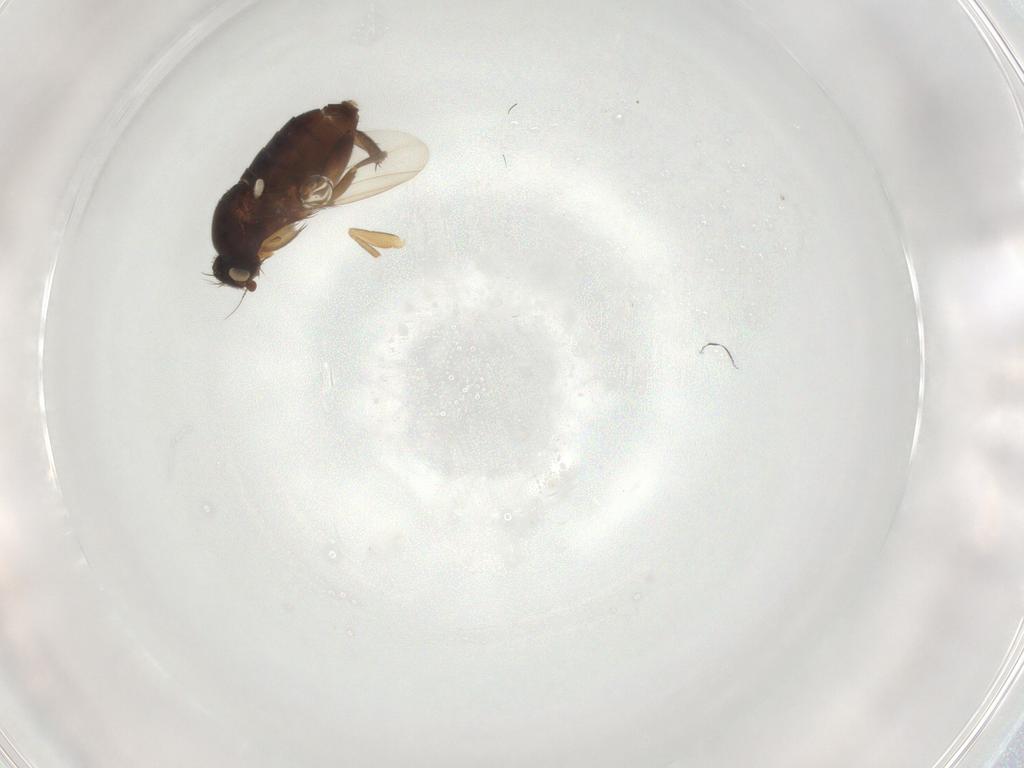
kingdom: Animalia
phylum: Arthropoda
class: Insecta
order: Diptera
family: Phoridae
